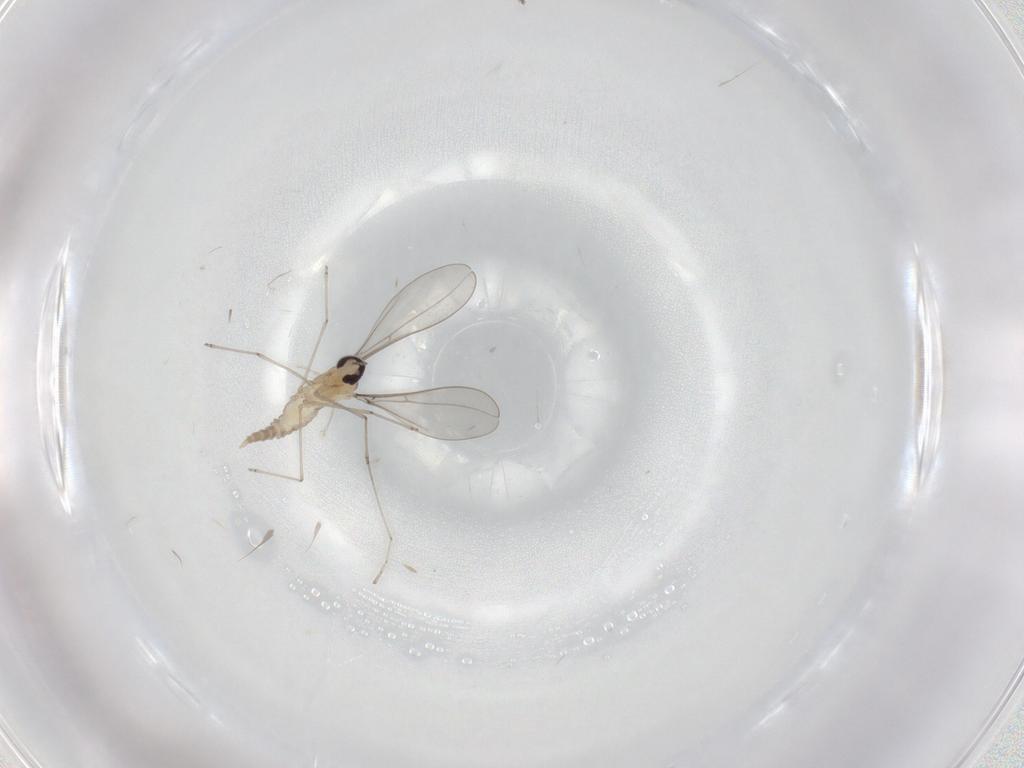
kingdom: Animalia
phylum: Arthropoda
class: Insecta
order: Diptera
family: Cecidomyiidae
